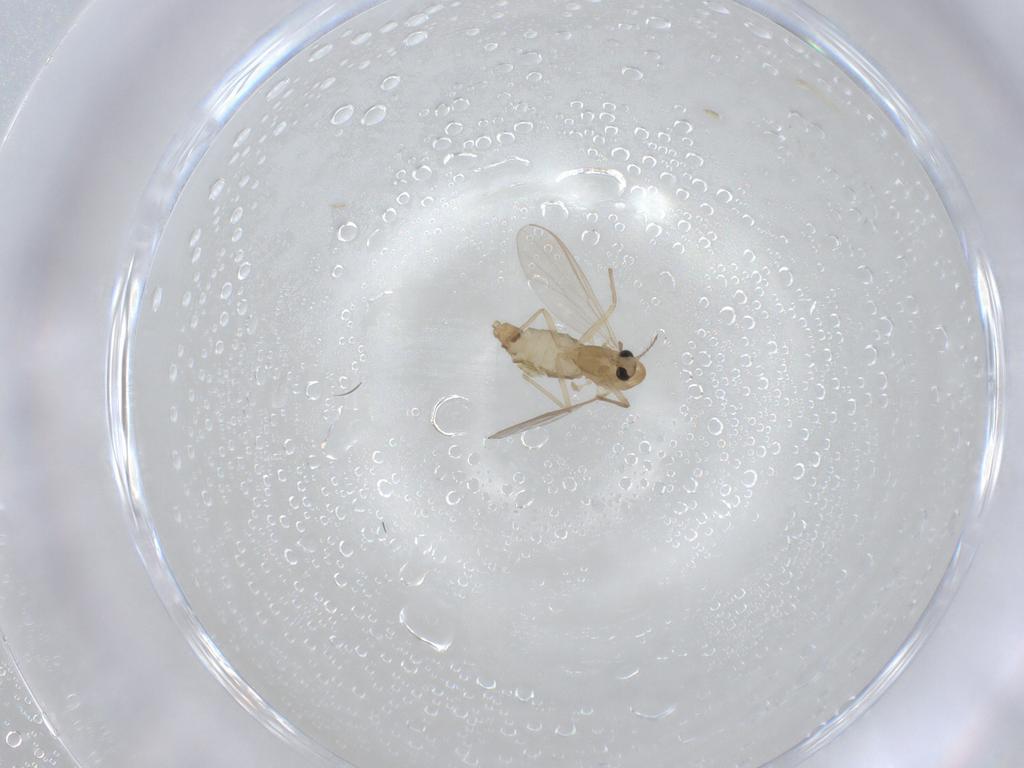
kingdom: Animalia
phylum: Arthropoda
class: Insecta
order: Diptera
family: Chironomidae
